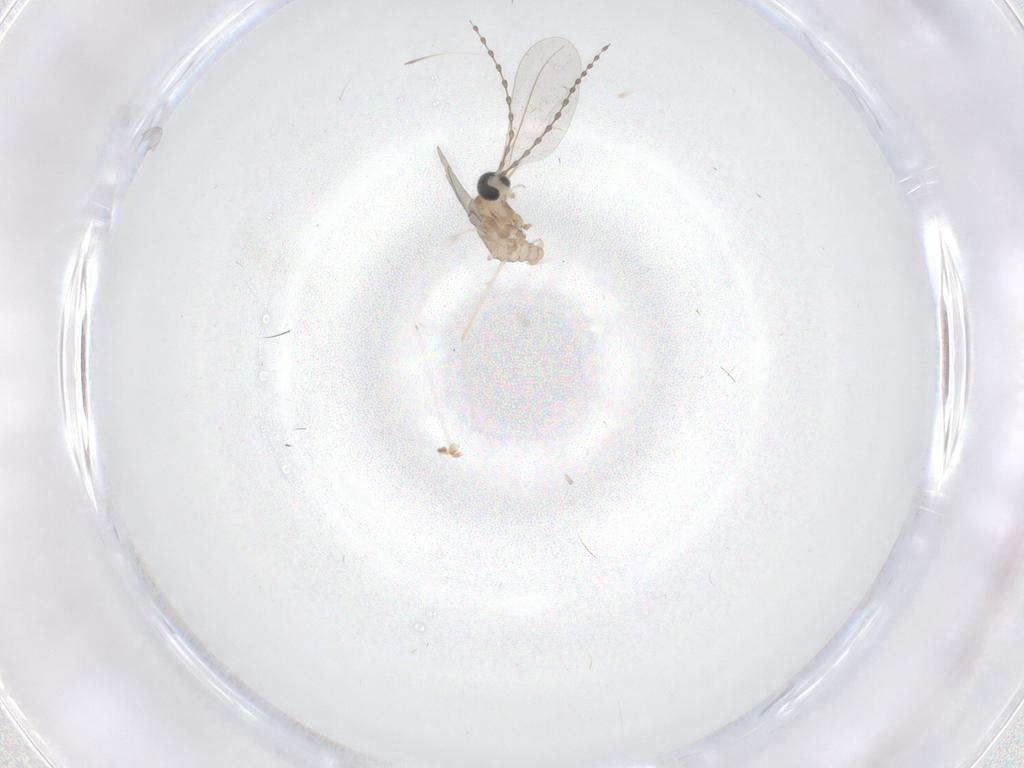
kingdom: Animalia
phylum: Arthropoda
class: Insecta
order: Diptera
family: Cecidomyiidae
